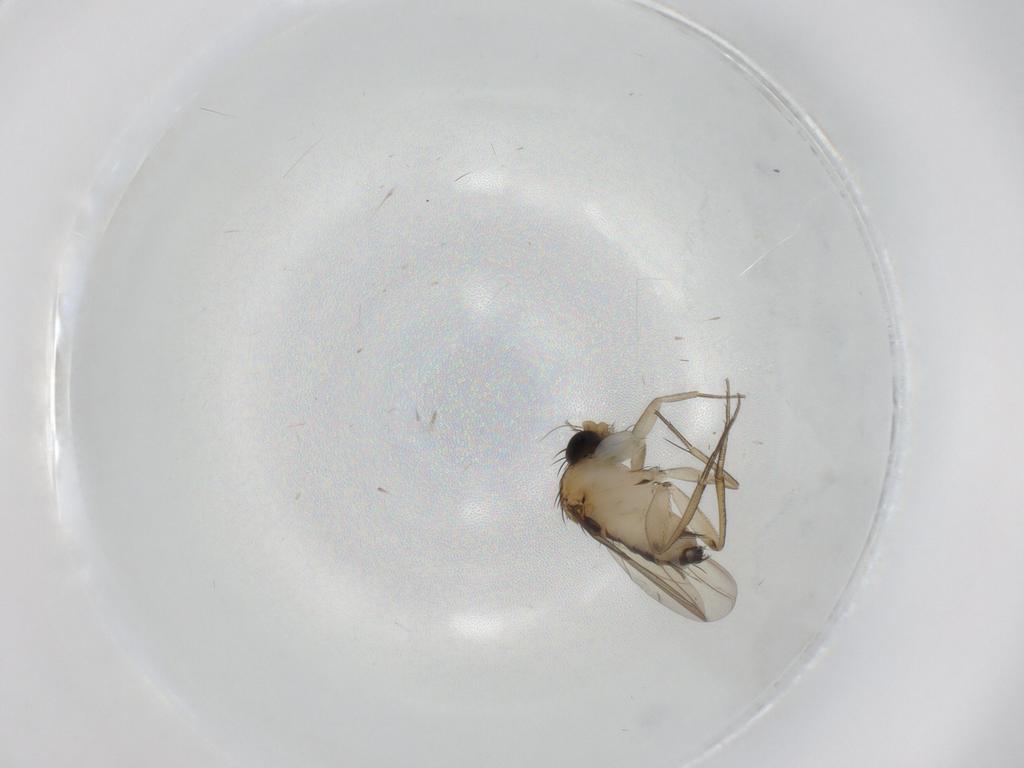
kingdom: Animalia
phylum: Arthropoda
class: Insecta
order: Diptera
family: Phoridae
